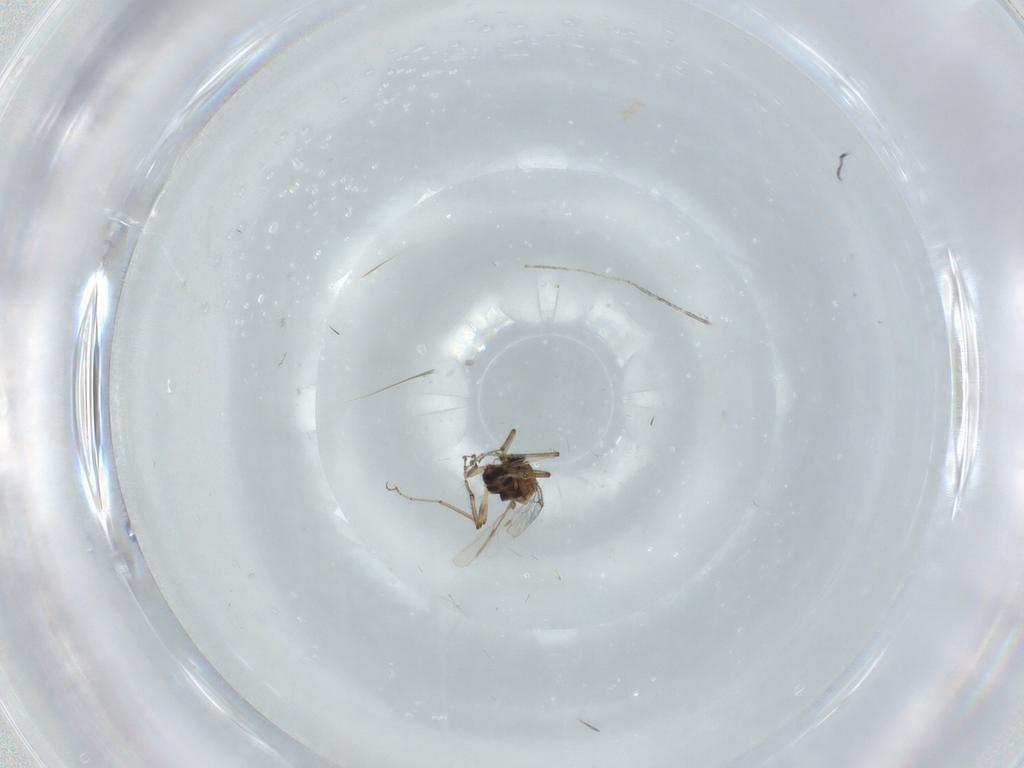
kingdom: Animalia
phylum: Arthropoda
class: Insecta
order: Diptera
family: Ceratopogonidae
